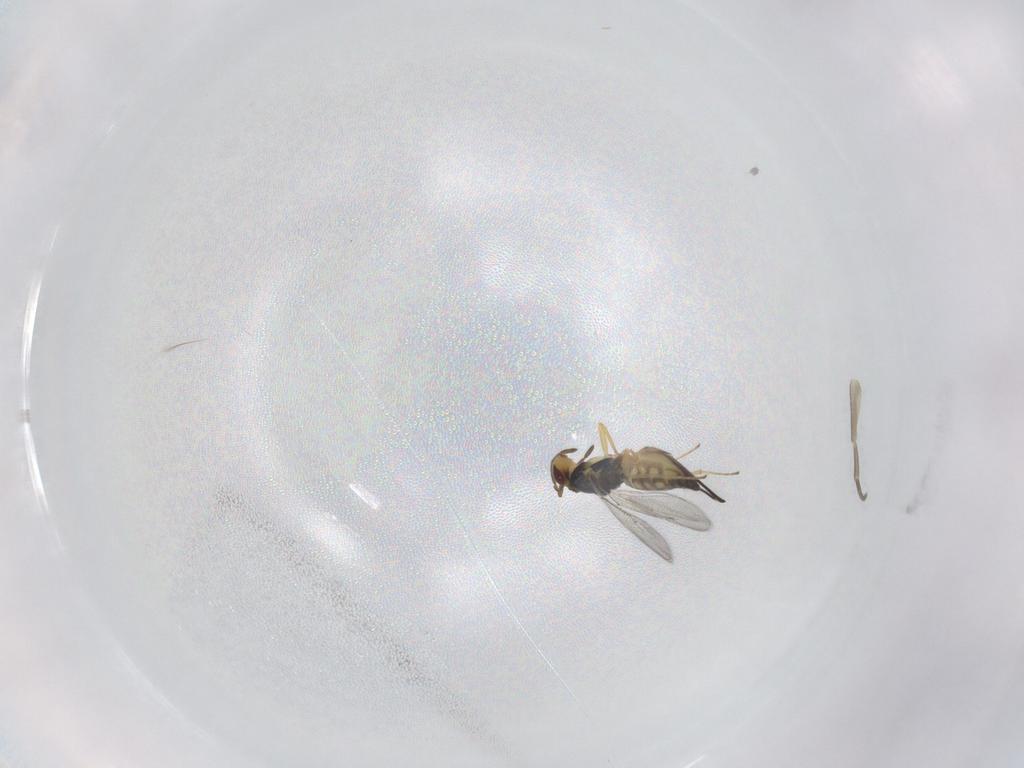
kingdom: Animalia
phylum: Arthropoda
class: Insecta
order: Hymenoptera
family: Eulophidae
